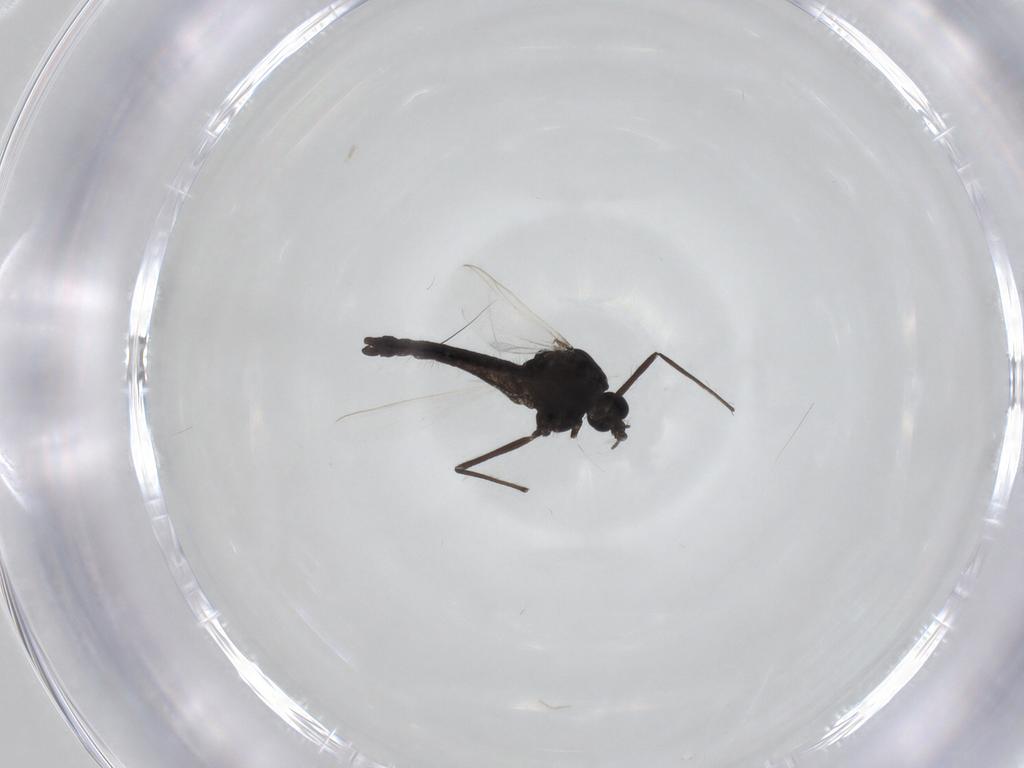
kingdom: Animalia
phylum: Arthropoda
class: Insecta
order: Diptera
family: Chironomidae
